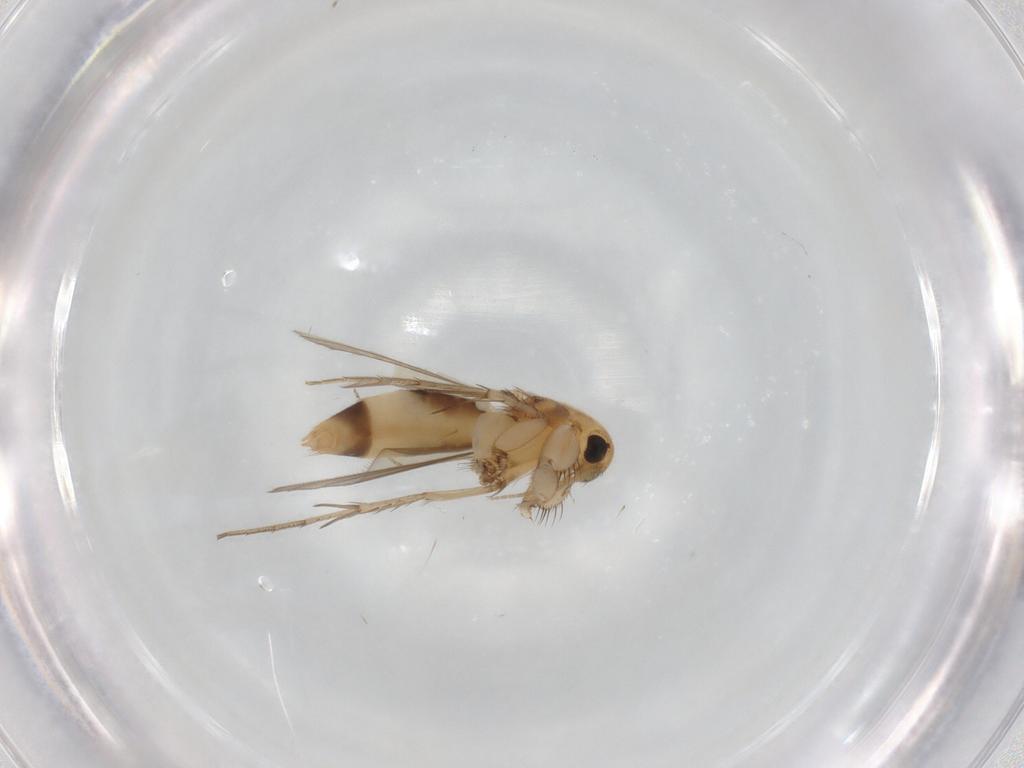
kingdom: Animalia
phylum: Arthropoda
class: Insecta
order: Diptera
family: Mycetophilidae
